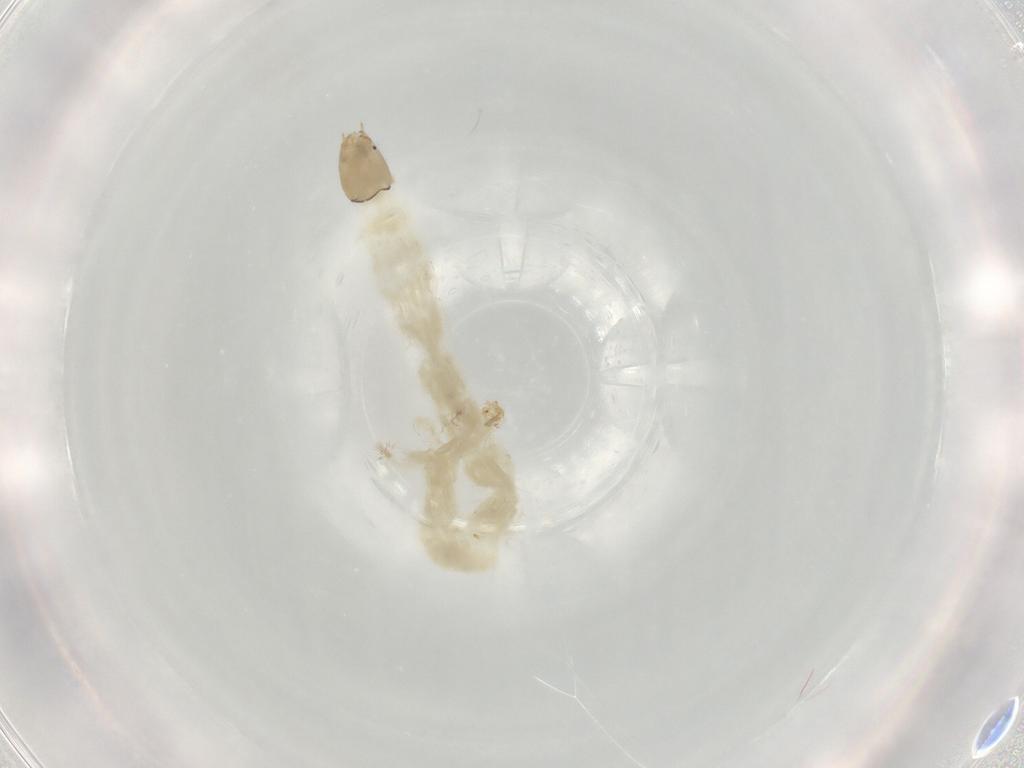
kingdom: Animalia
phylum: Arthropoda
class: Insecta
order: Diptera
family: Chironomidae
